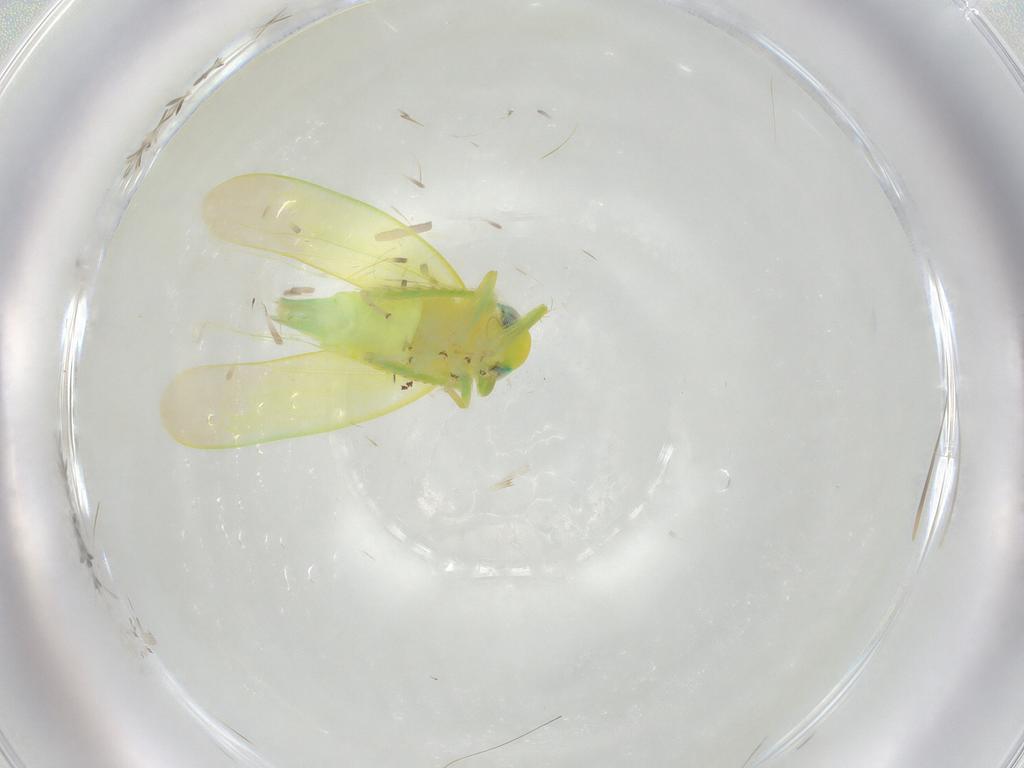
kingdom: Animalia
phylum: Arthropoda
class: Insecta
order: Hemiptera
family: Cicadellidae
